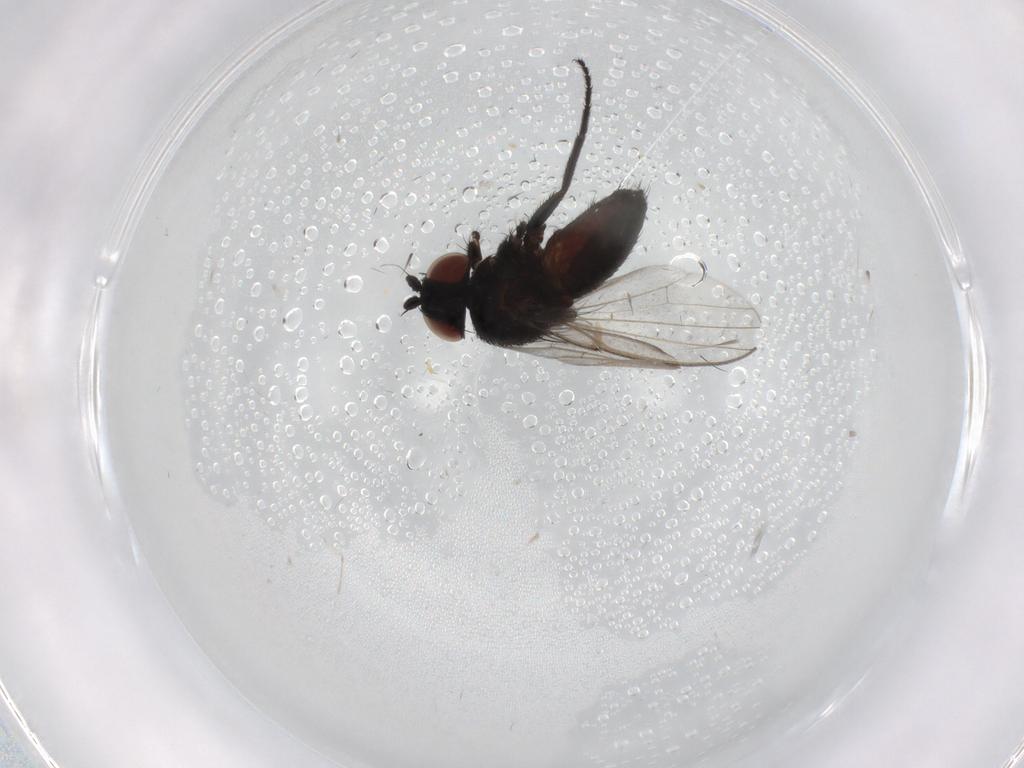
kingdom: Animalia
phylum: Arthropoda
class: Insecta
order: Diptera
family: Milichiidae
